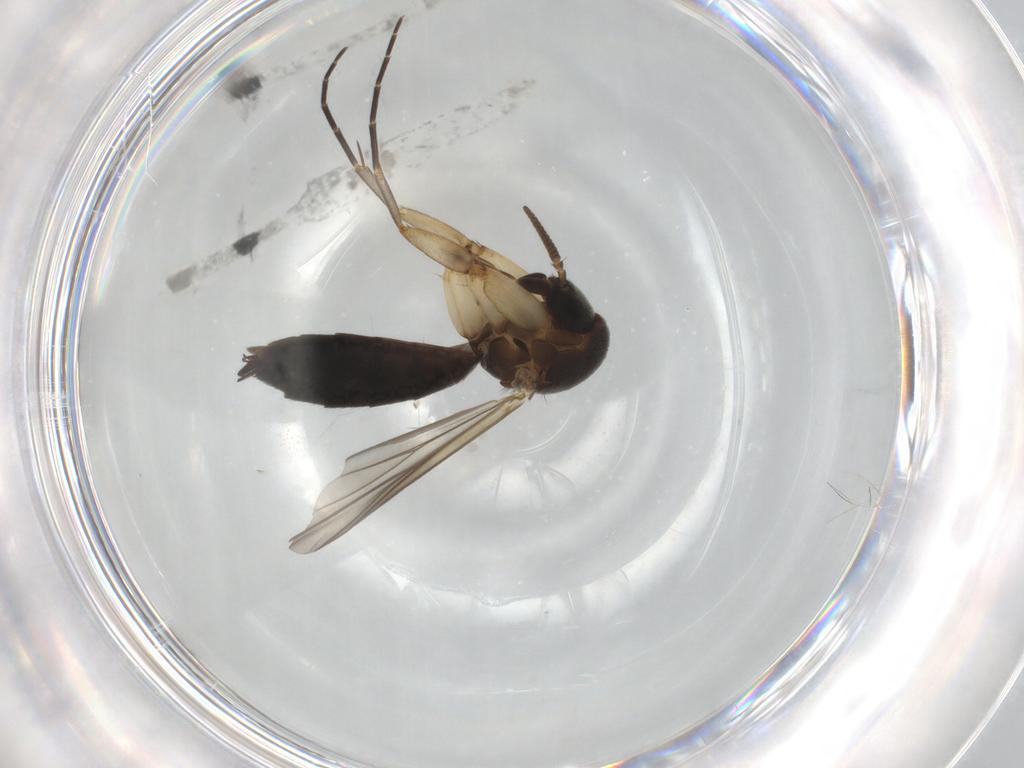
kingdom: Animalia
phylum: Arthropoda
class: Insecta
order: Diptera
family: Mycetophilidae
